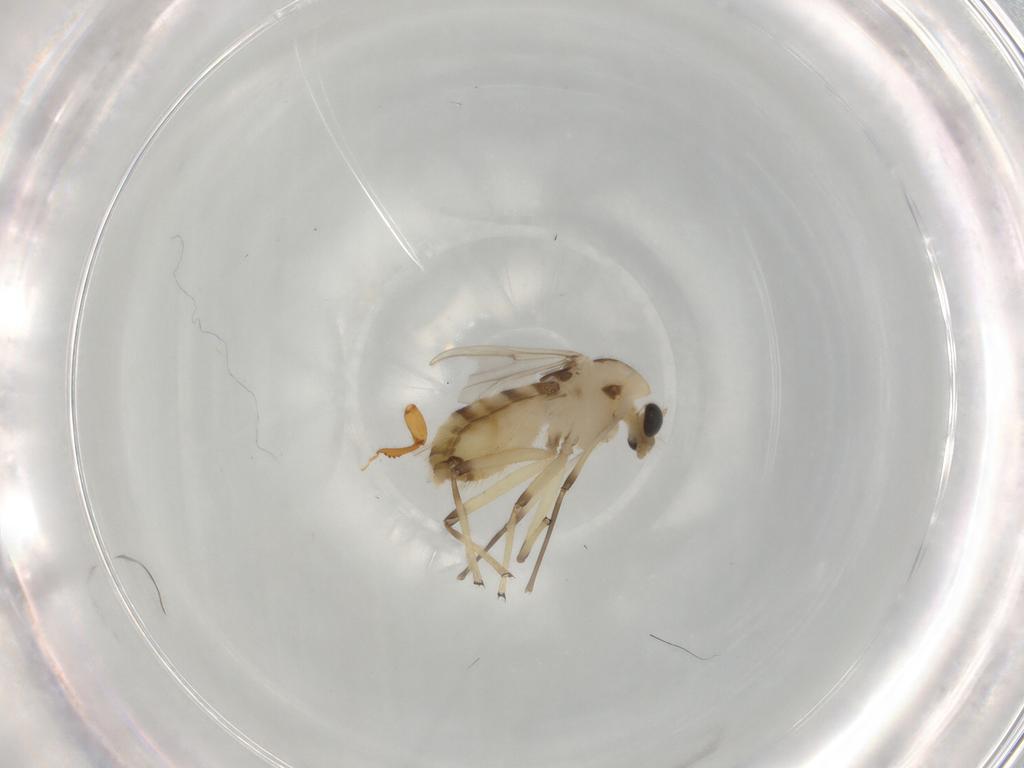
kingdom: Animalia
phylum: Arthropoda
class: Insecta
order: Diptera
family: Chironomidae
